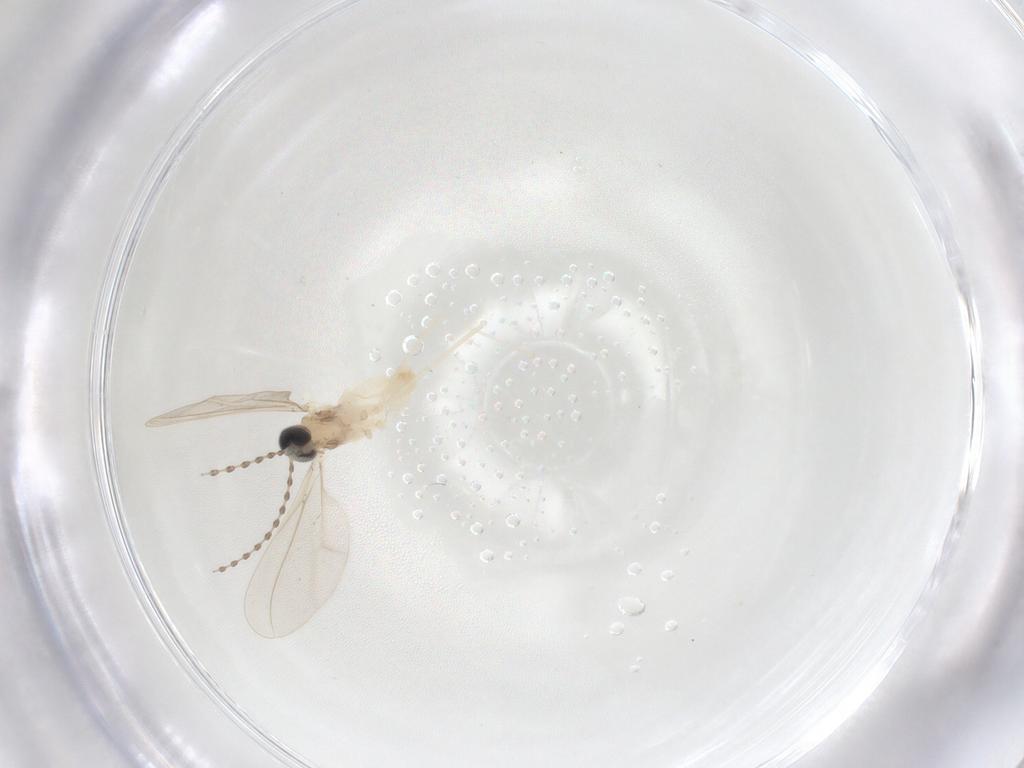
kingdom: Animalia
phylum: Arthropoda
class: Insecta
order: Diptera
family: Cecidomyiidae
